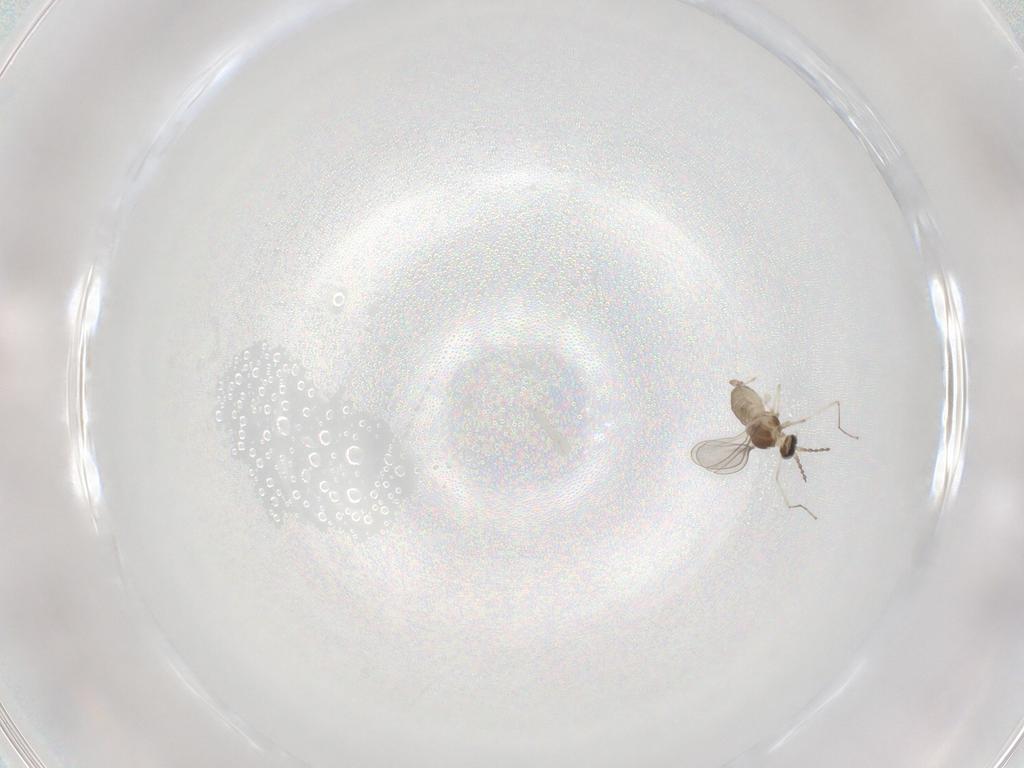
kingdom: Animalia
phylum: Arthropoda
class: Insecta
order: Diptera
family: Cecidomyiidae
